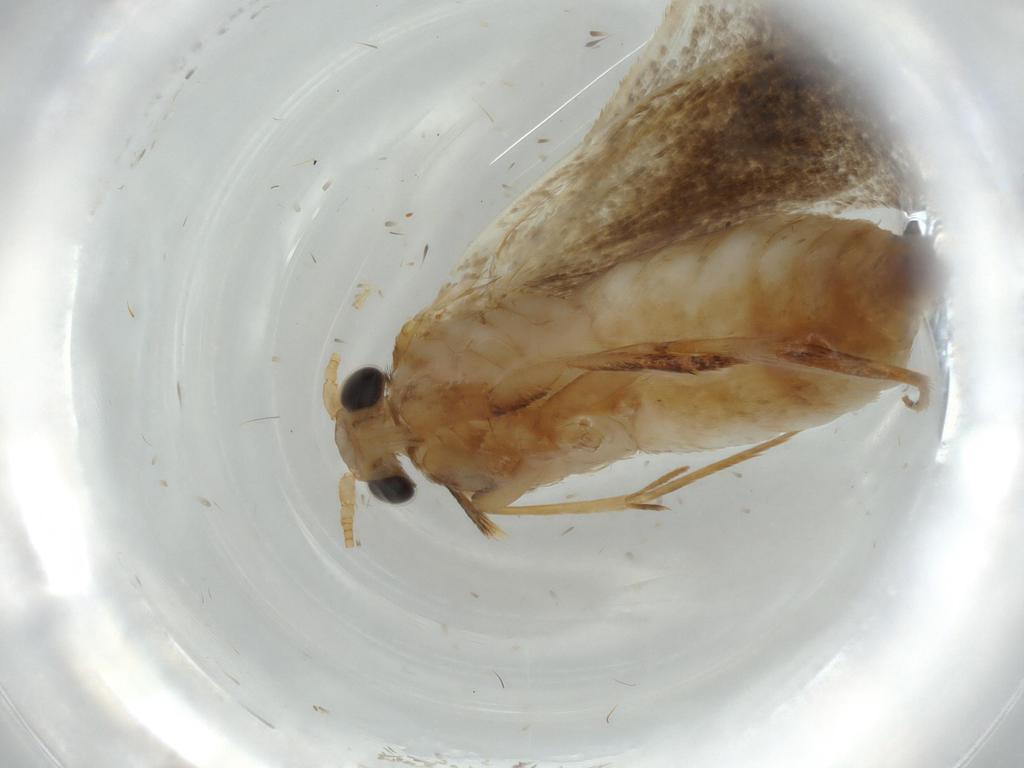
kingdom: Animalia
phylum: Arthropoda
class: Insecta
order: Lepidoptera
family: Tineidae
